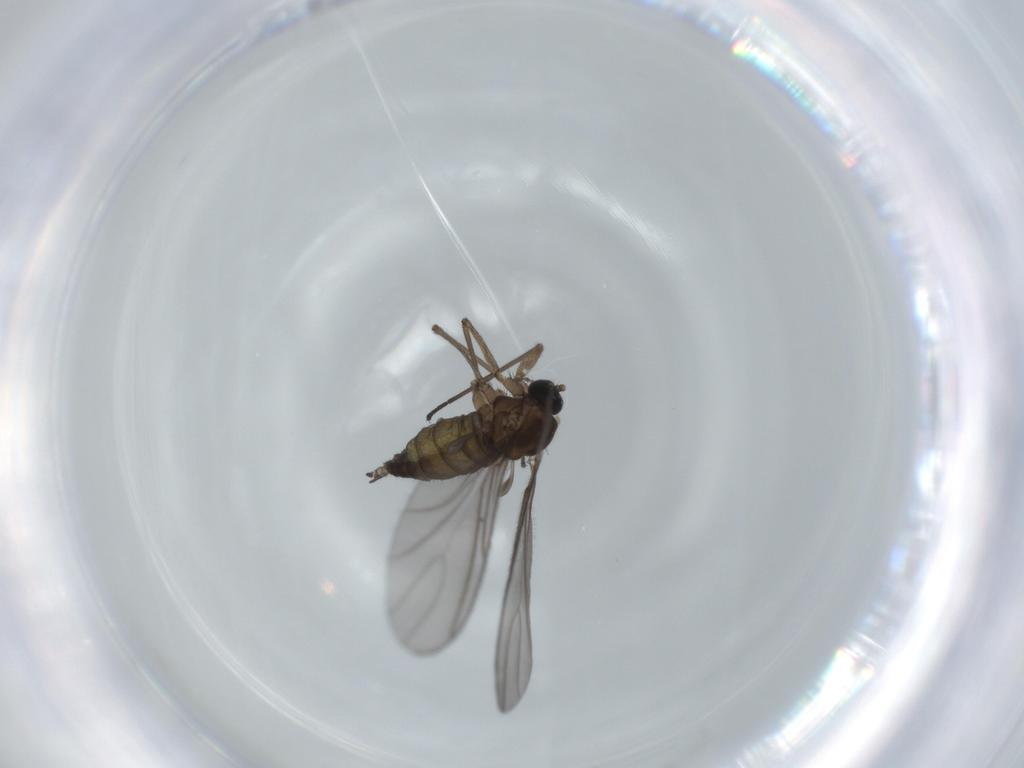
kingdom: Animalia
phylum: Arthropoda
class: Insecta
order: Diptera
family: Sciaridae
